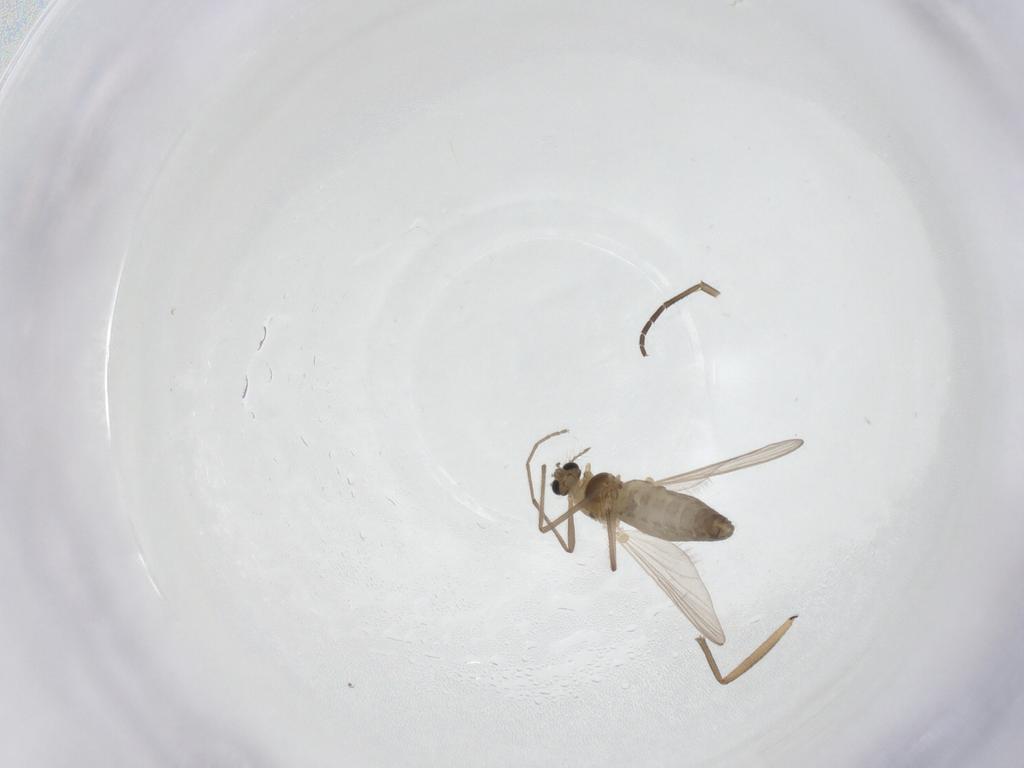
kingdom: Animalia
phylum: Arthropoda
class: Insecta
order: Diptera
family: Sciaridae
